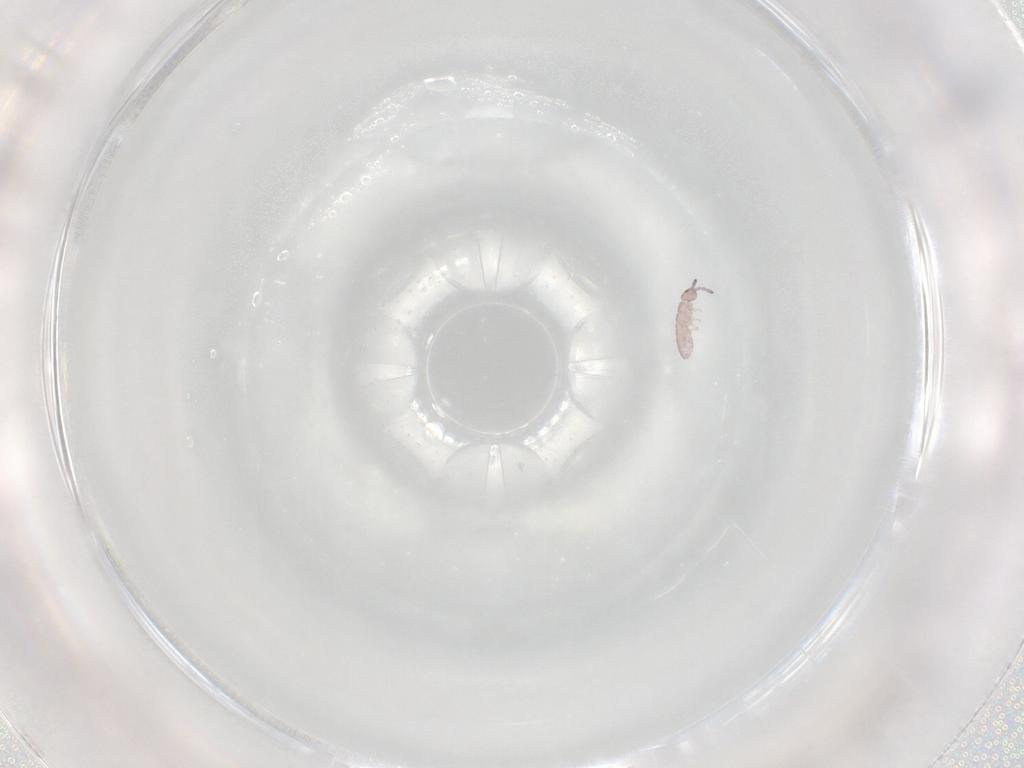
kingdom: Animalia
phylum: Arthropoda
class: Collembola
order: Entomobryomorpha
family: Isotomidae
